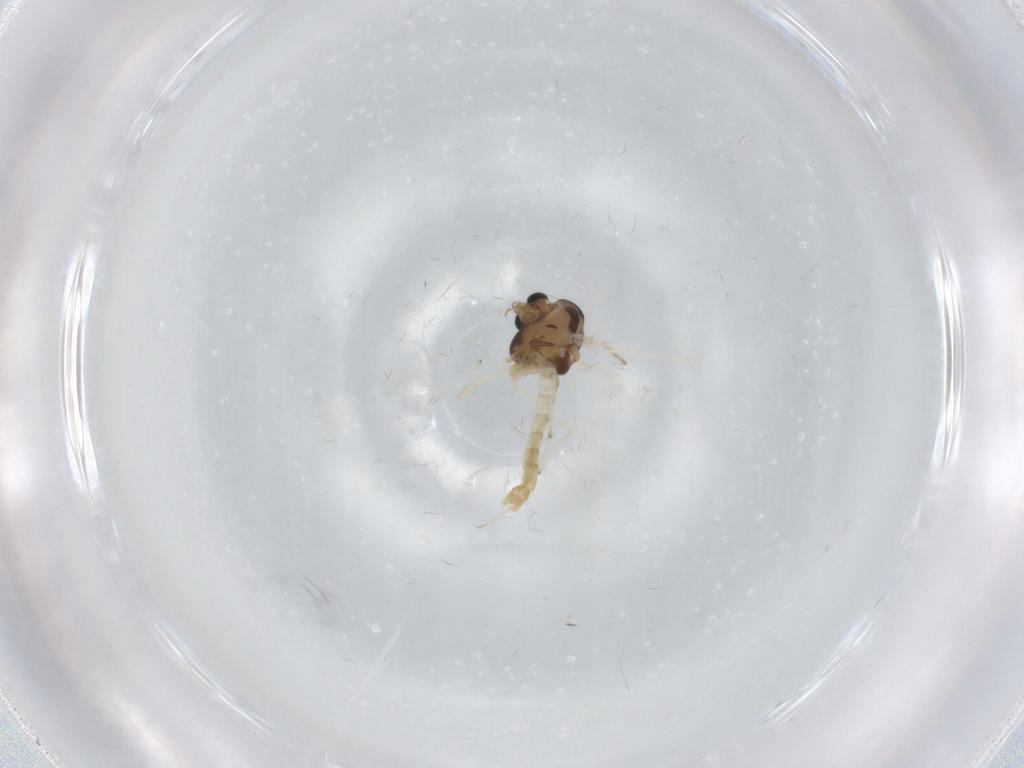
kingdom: Animalia
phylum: Arthropoda
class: Insecta
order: Diptera
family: Chironomidae
